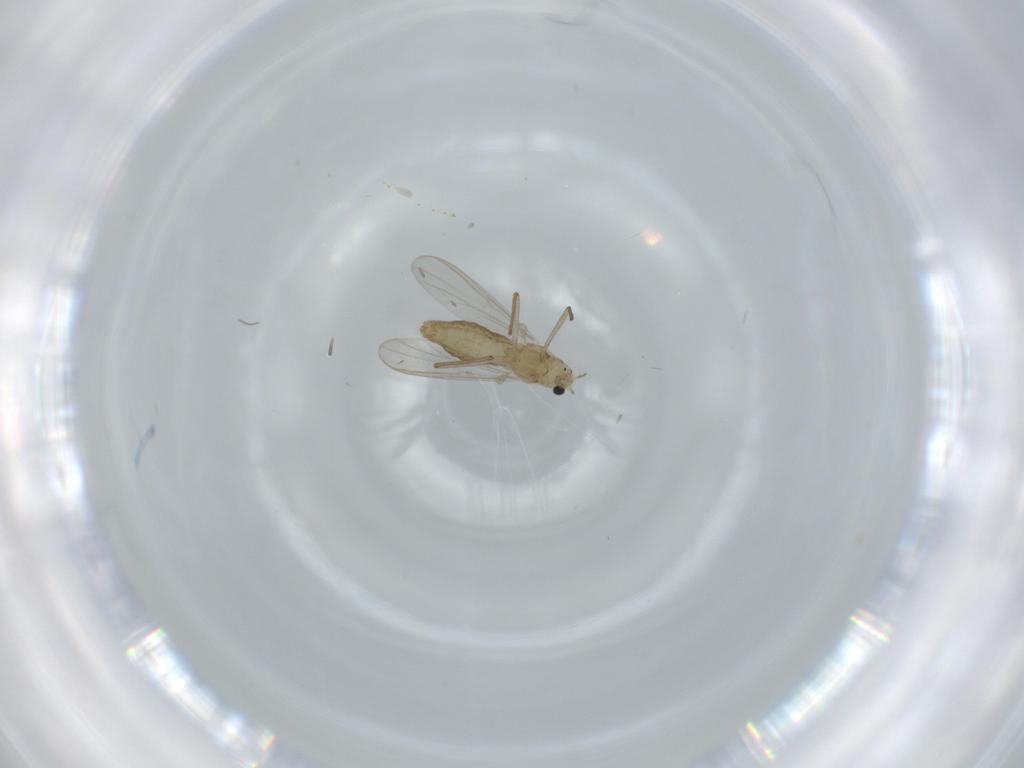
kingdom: Animalia
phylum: Arthropoda
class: Insecta
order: Diptera
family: Chironomidae
